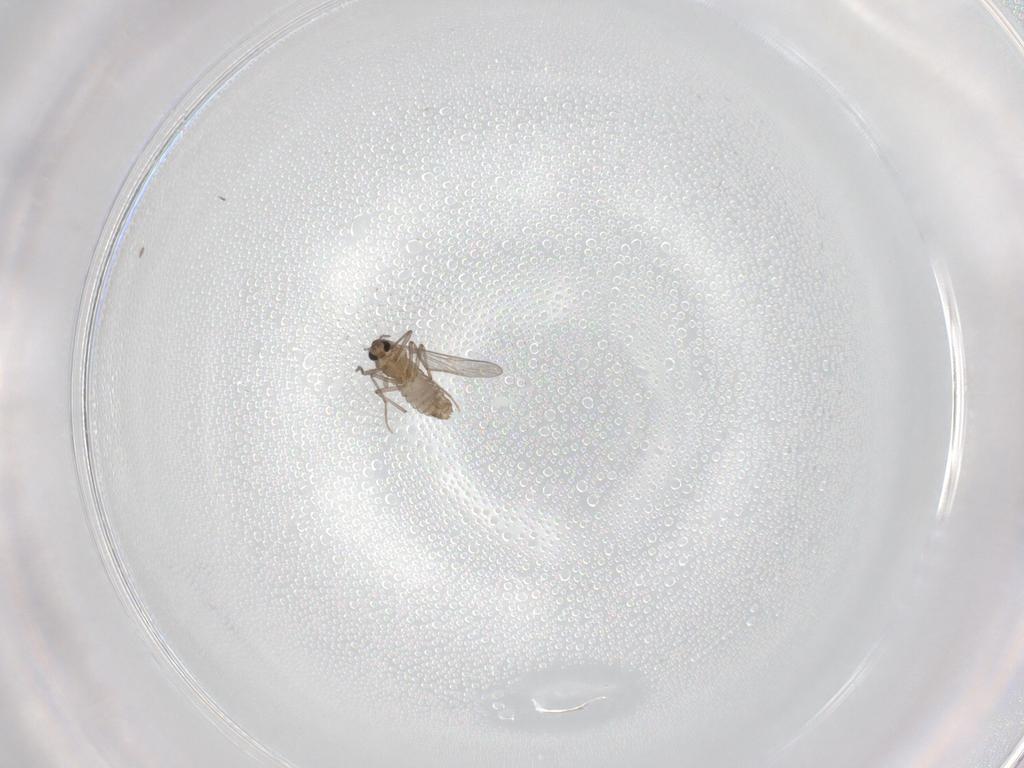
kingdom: Animalia
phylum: Arthropoda
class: Insecta
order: Diptera
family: Chironomidae
